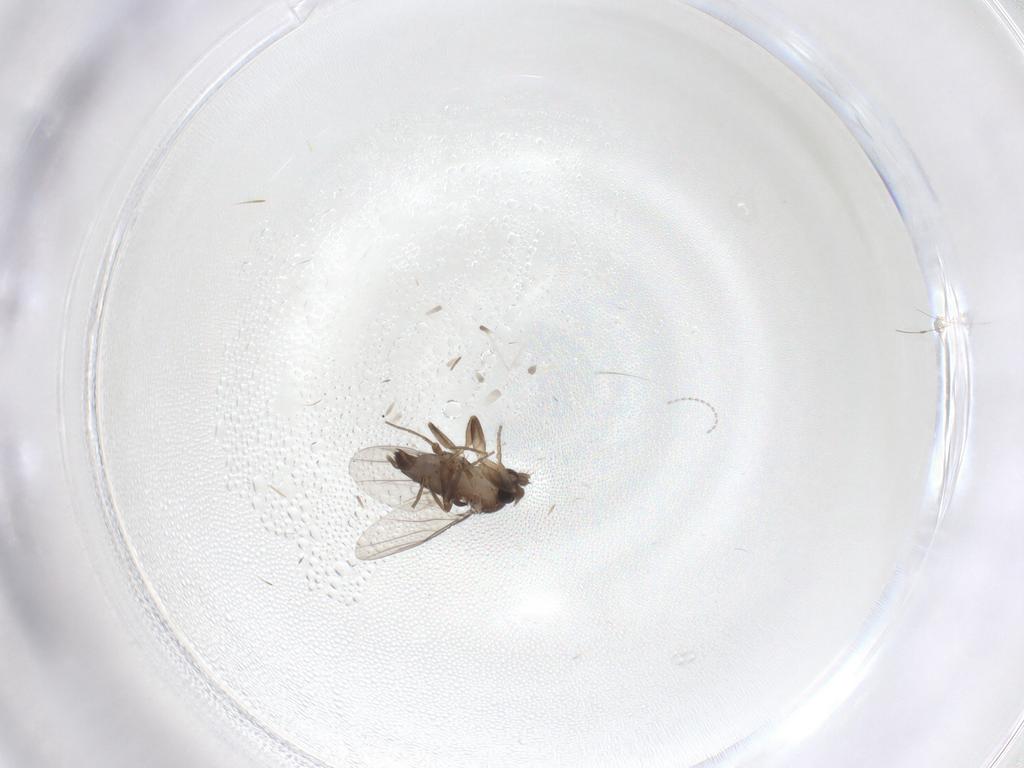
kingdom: Animalia
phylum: Arthropoda
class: Insecta
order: Diptera
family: Phoridae
